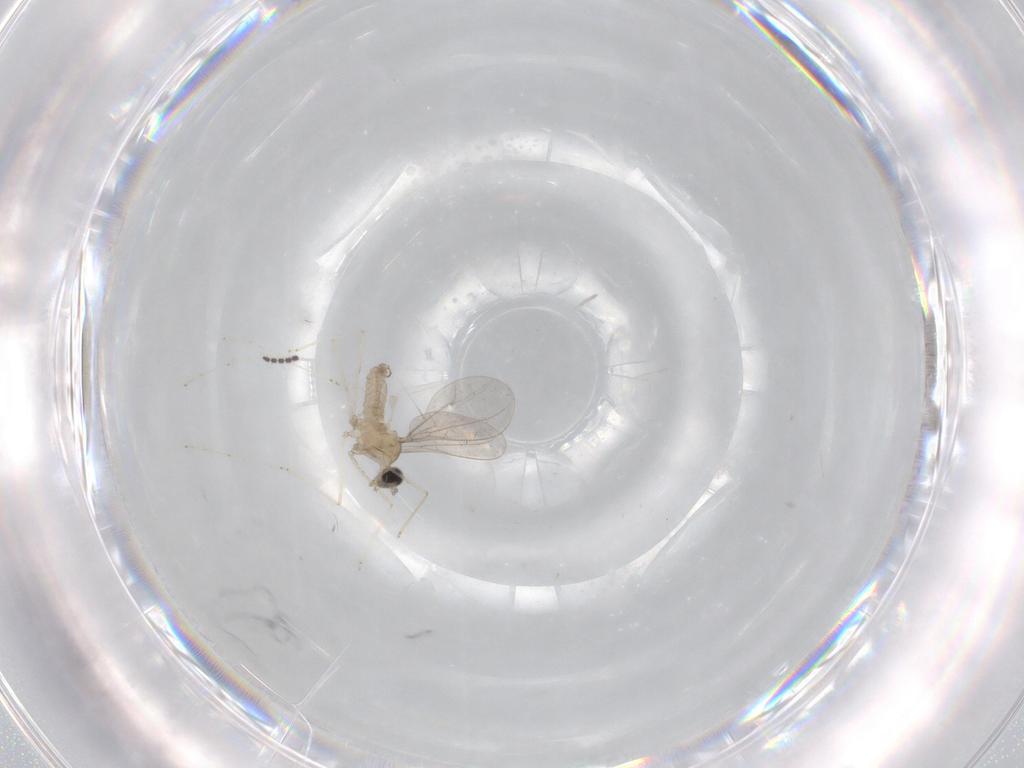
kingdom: Animalia
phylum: Arthropoda
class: Insecta
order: Diptera
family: Cecidomyiidae
